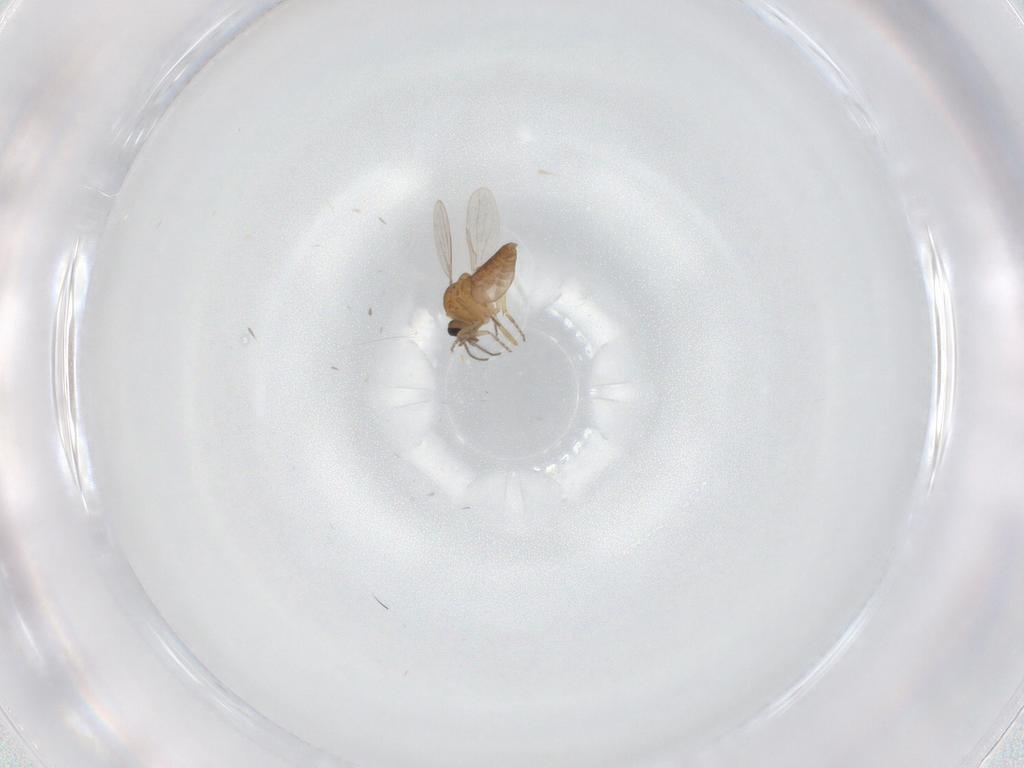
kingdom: Animalia
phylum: Arthropoda
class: Insecta
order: Diptera
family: Ceratopogonidae
